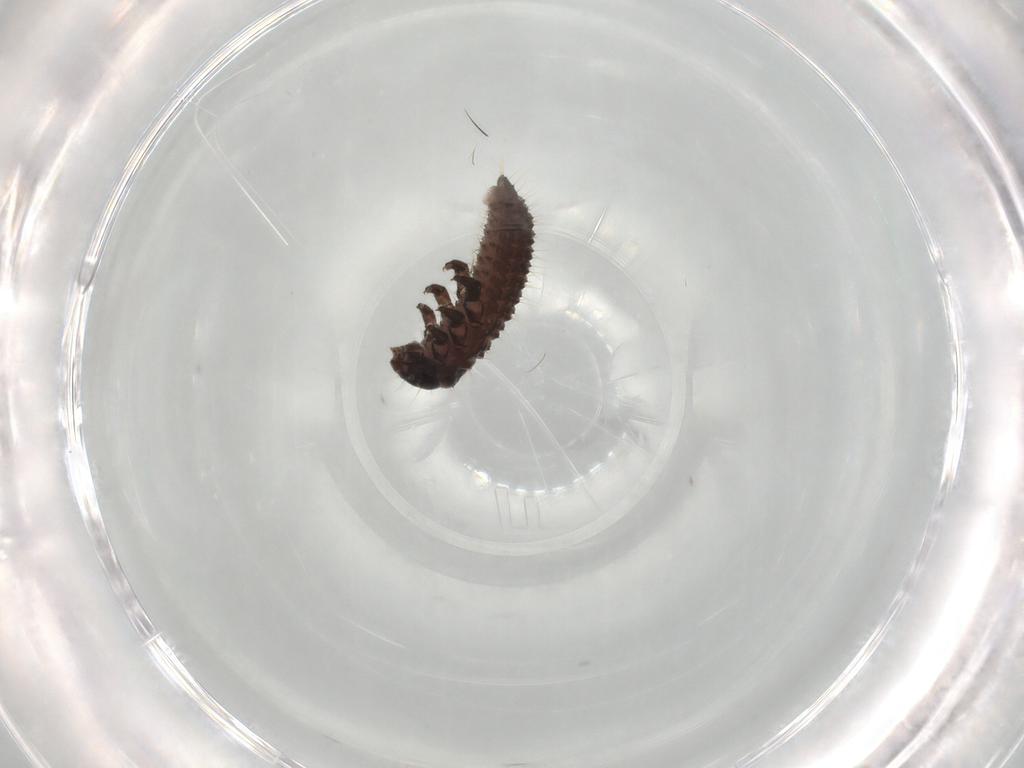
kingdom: Animalia
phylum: Arthropoda
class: Insecta
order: Coleoptera
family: Chrysomelidae
